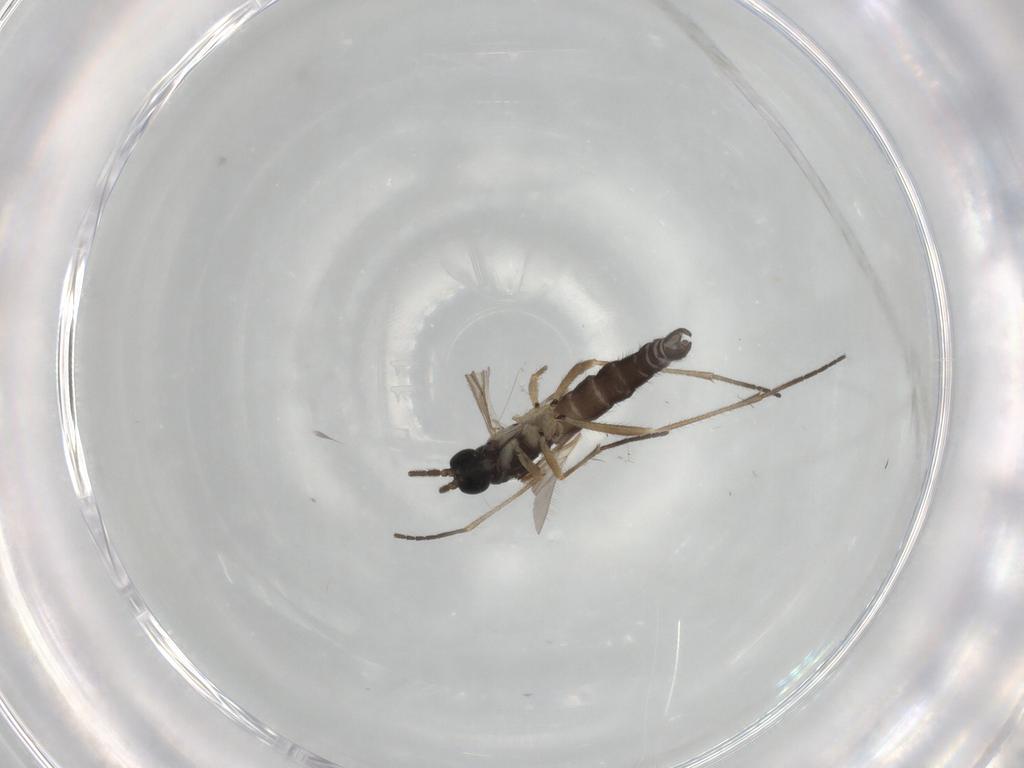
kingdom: Animalia
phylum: Arthropoda
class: Insecta
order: Diptera
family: Sciaridae
